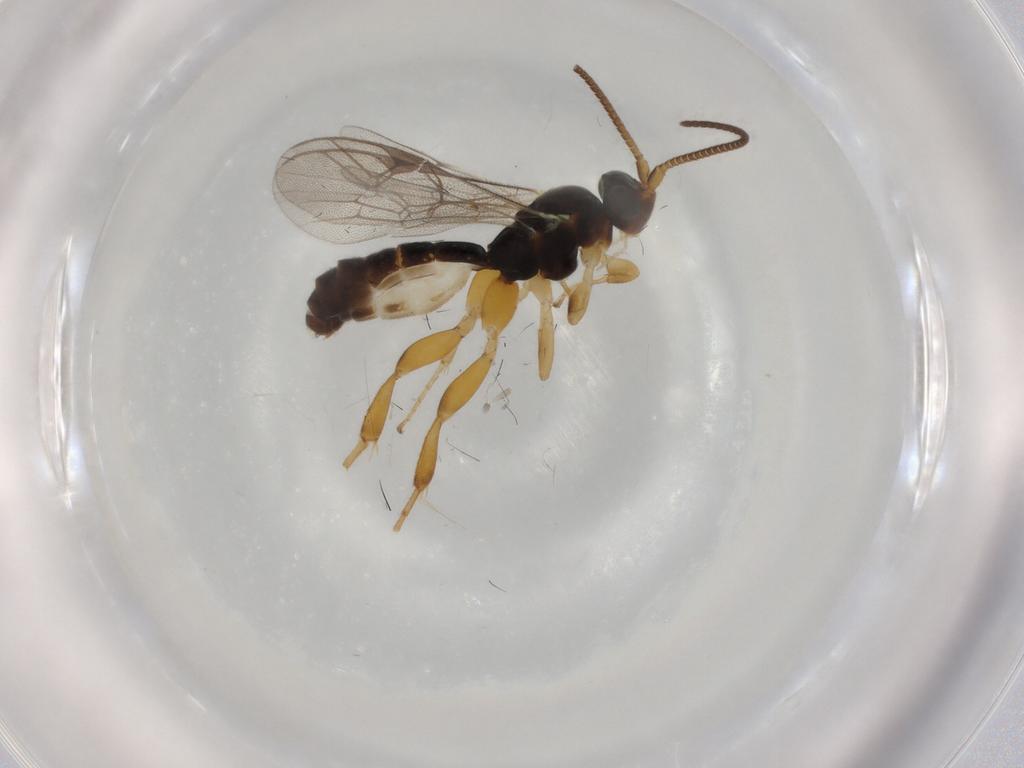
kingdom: Animalia
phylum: Arthropoda
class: Insecta
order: Hymenoptera
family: Ichneumonidae
